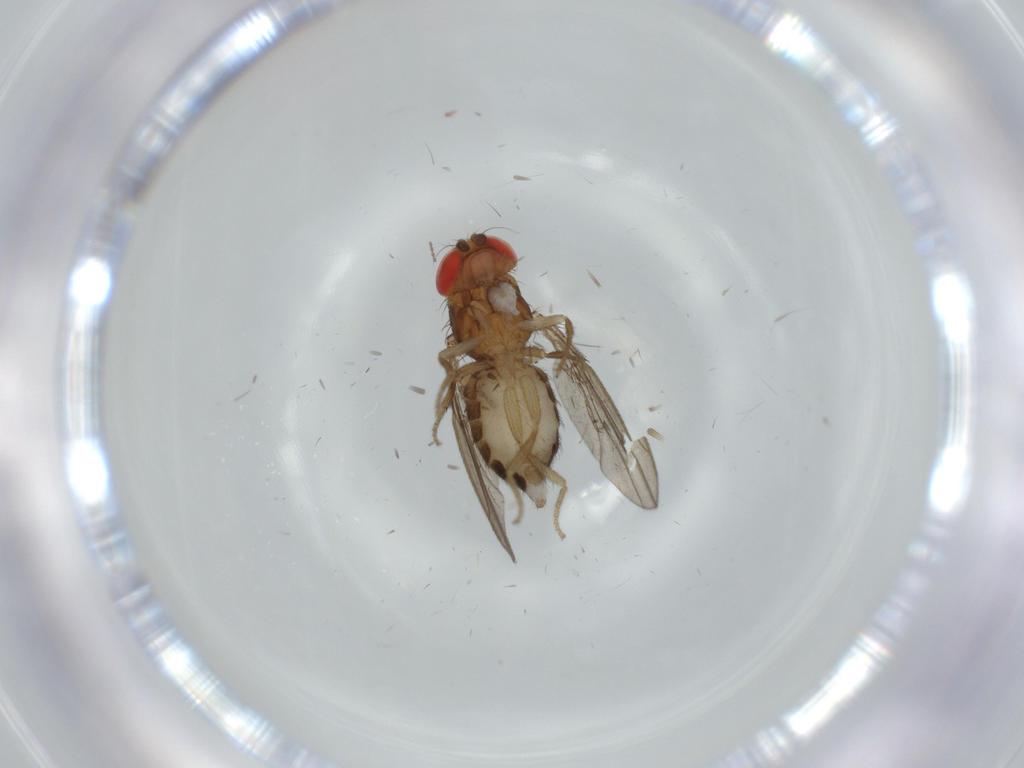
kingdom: Animalia
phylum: Arthropoda
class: Insecta
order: Diptera
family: Drosophilidae
